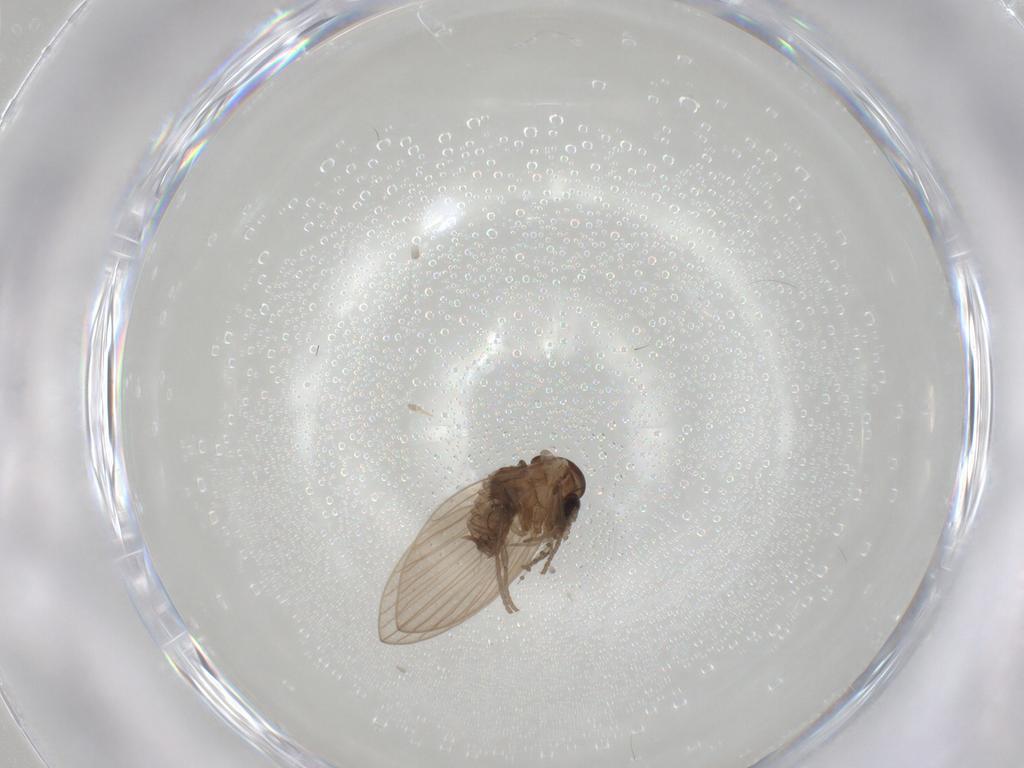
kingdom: Animalia
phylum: Arthropoda
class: Insecta
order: Diptera
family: Psychodidae
